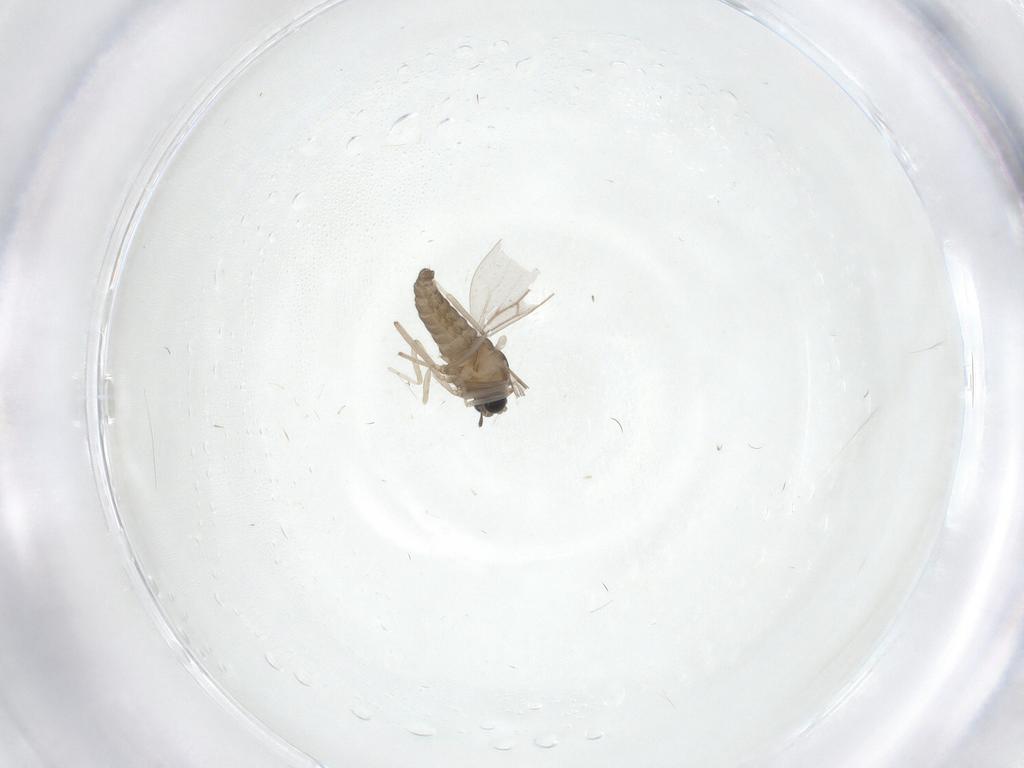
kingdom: Animalia
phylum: Arthropoda
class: Insecta
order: Diptera
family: Cecidomyiidae
